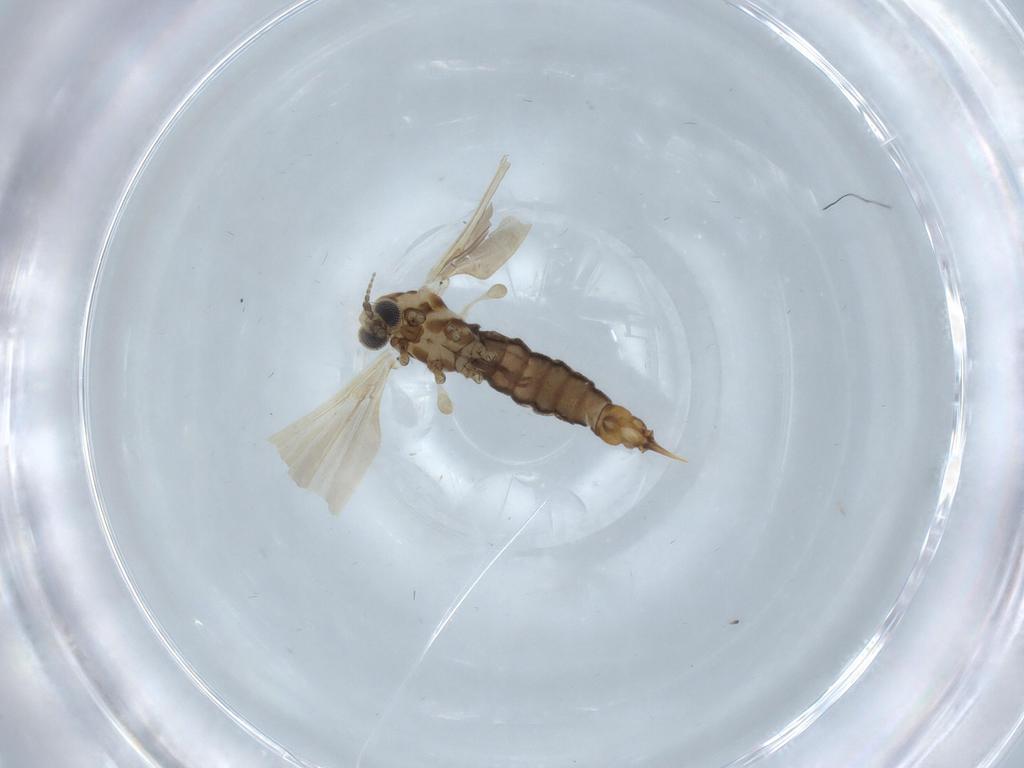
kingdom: Animalia
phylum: Arthropoda
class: Insecta
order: Diptera
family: Limoniidae
